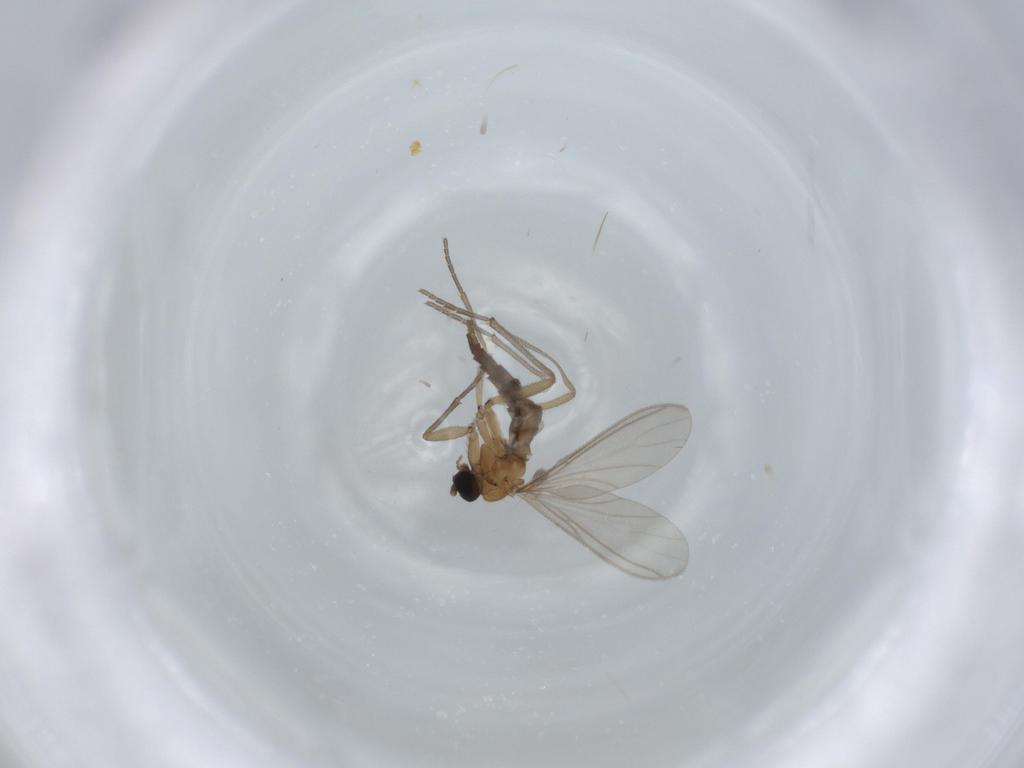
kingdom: Animalia
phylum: Arthropoda
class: Insecta
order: Diptera
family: Sciaridae
